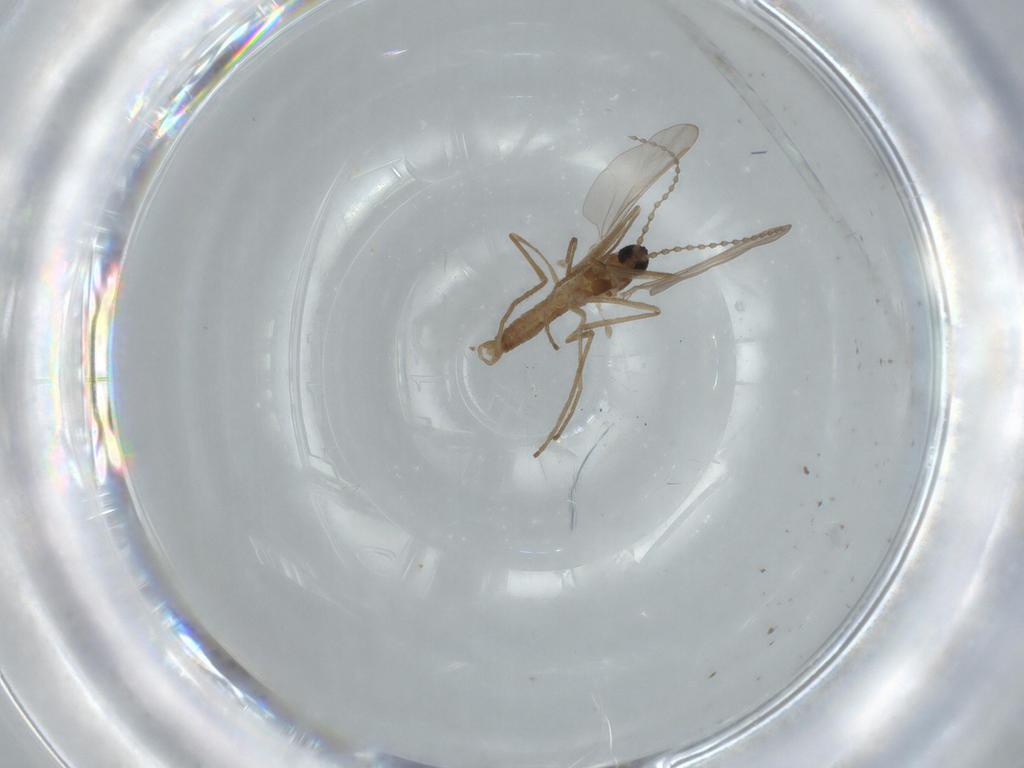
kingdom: Animalia
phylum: Arthropoda
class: Insecta
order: Diptera
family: Cecidomyiidae
